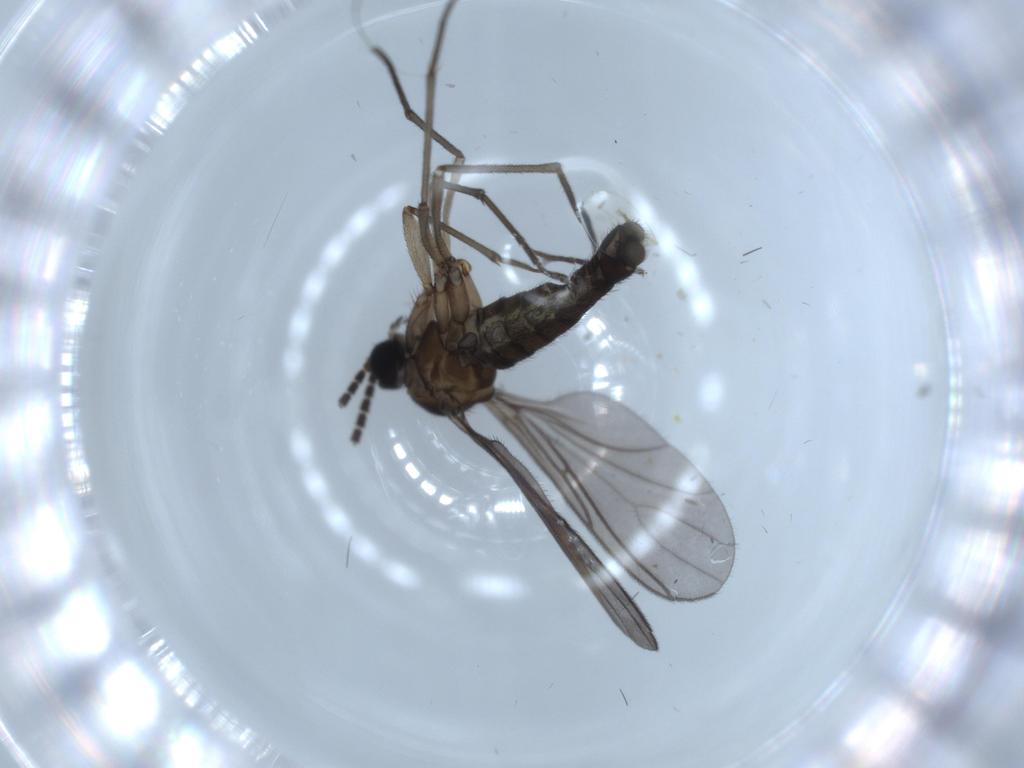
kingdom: Animalia
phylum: Arthropoda
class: Insecta
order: Diptera
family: Sciaridae
